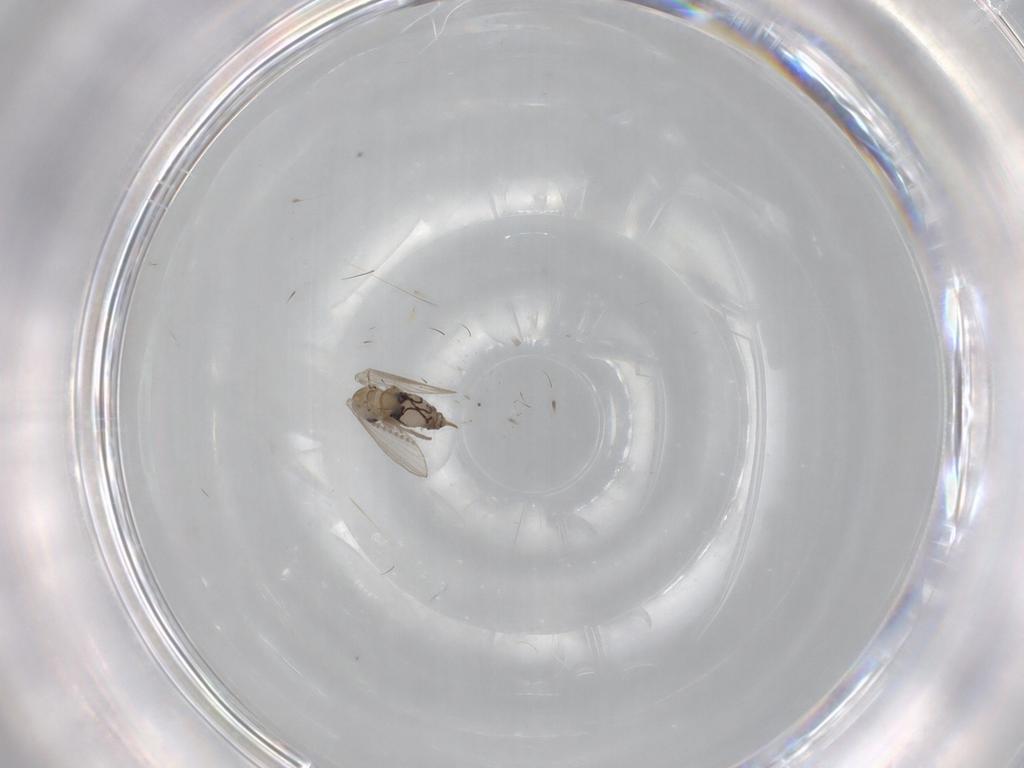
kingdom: Animalia
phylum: Arthropoda
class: Insecta
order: Diptera
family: Psychodidae
